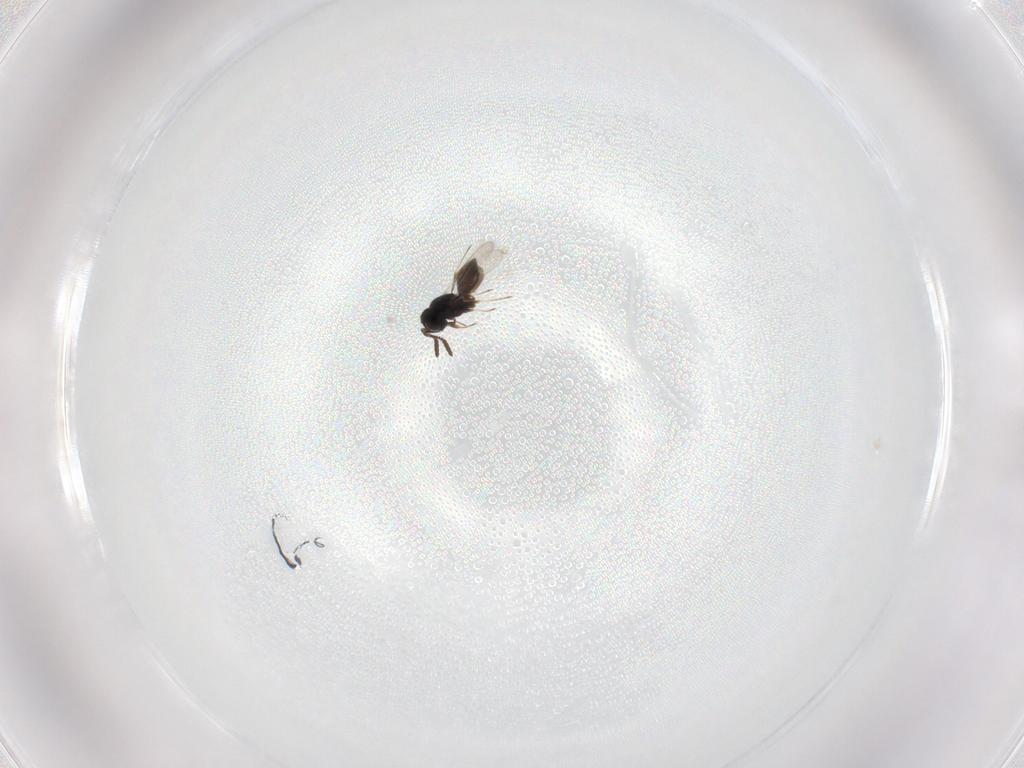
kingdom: Animalia
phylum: Arthropoda
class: Insecta
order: Hymenoptera
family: Scelionidae
